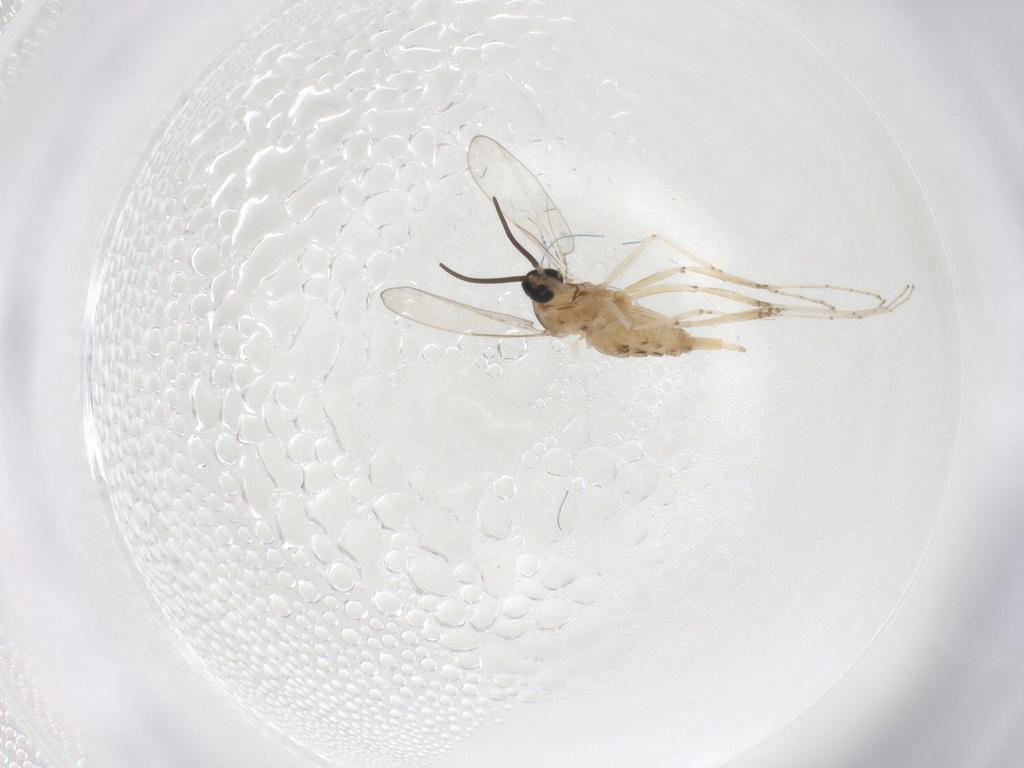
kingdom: Animalia
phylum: Arthropoda
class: Insecta
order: Diptera
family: Cecidomyiidae
